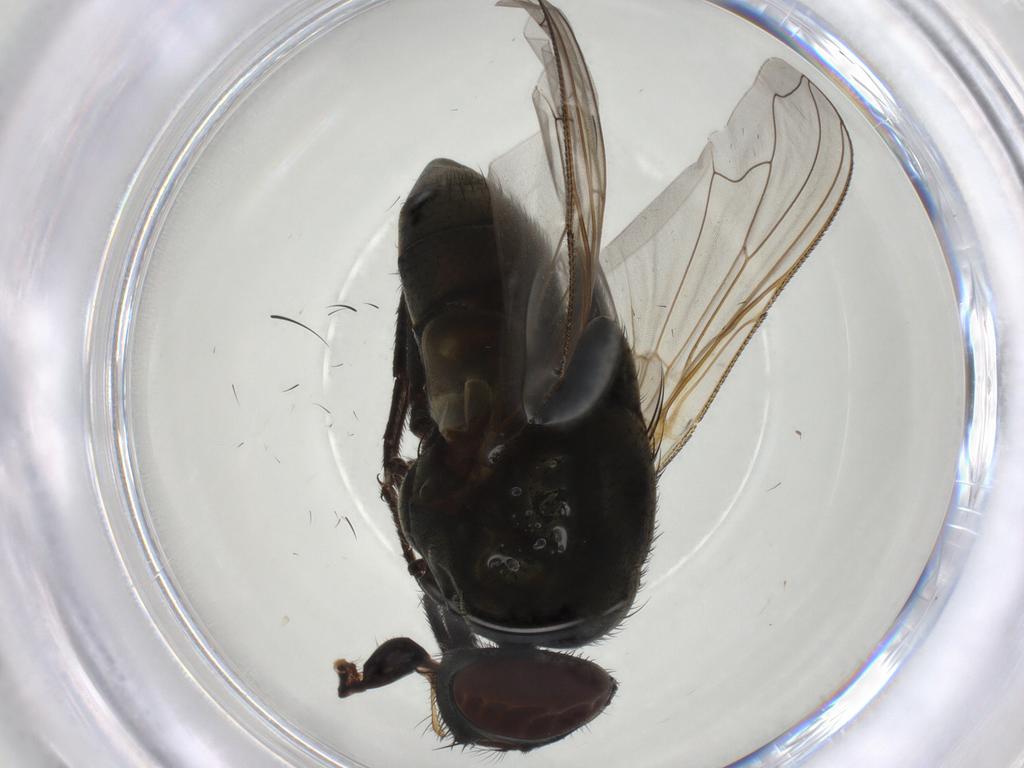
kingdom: Animalia
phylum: Arthropoda
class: Insecta
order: Diptera
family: Muscidae
